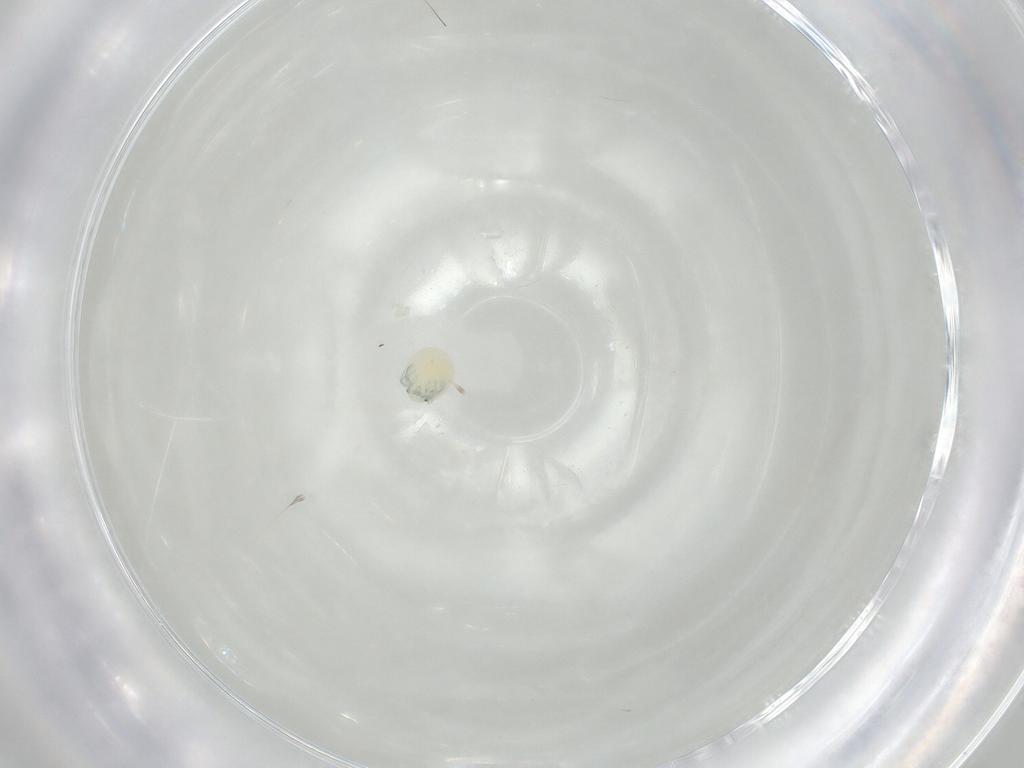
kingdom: Animalia
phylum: Arthropoda
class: Arachnida
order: Trombidiformes
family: Arrenuridae
